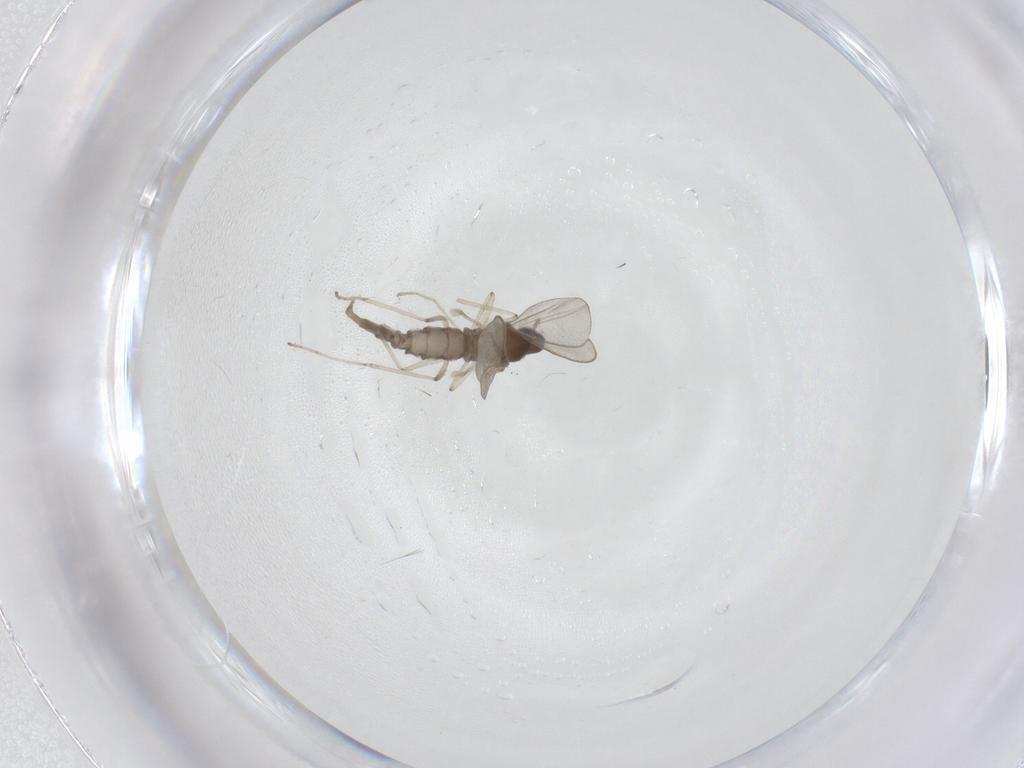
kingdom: Animalia
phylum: Arthropoda
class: Insecta
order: Diptera
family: Cecidomyiidae
